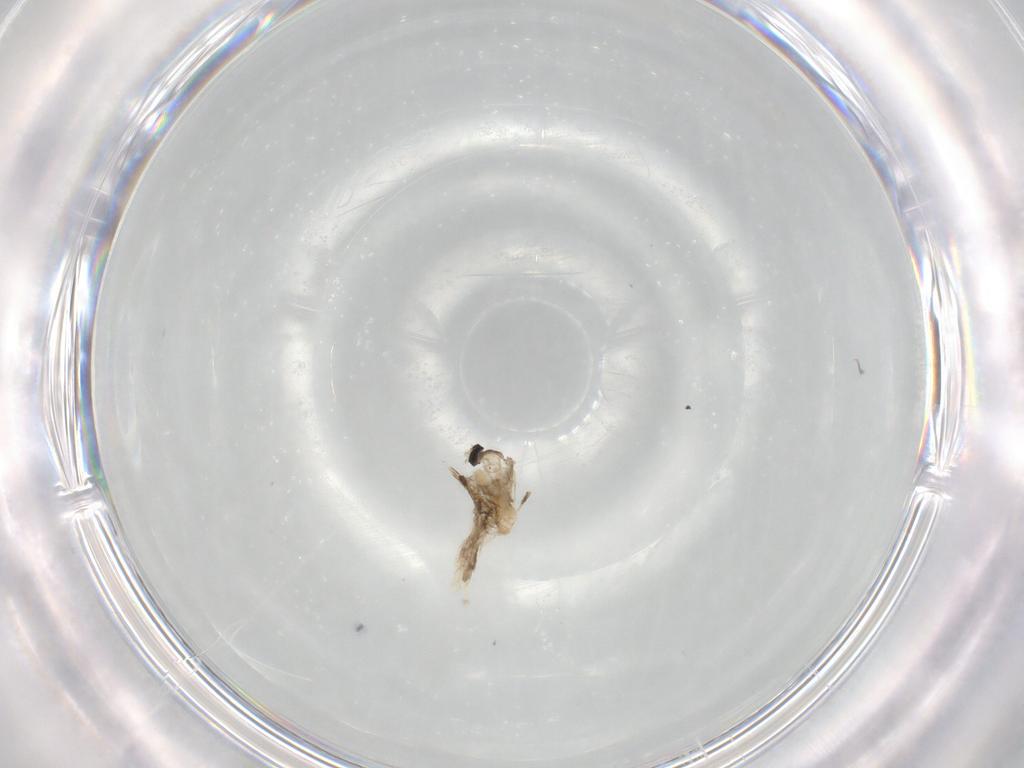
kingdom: Animalia
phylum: Arthropoda
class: Insecta
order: Diptera
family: Cecidomyiidae
